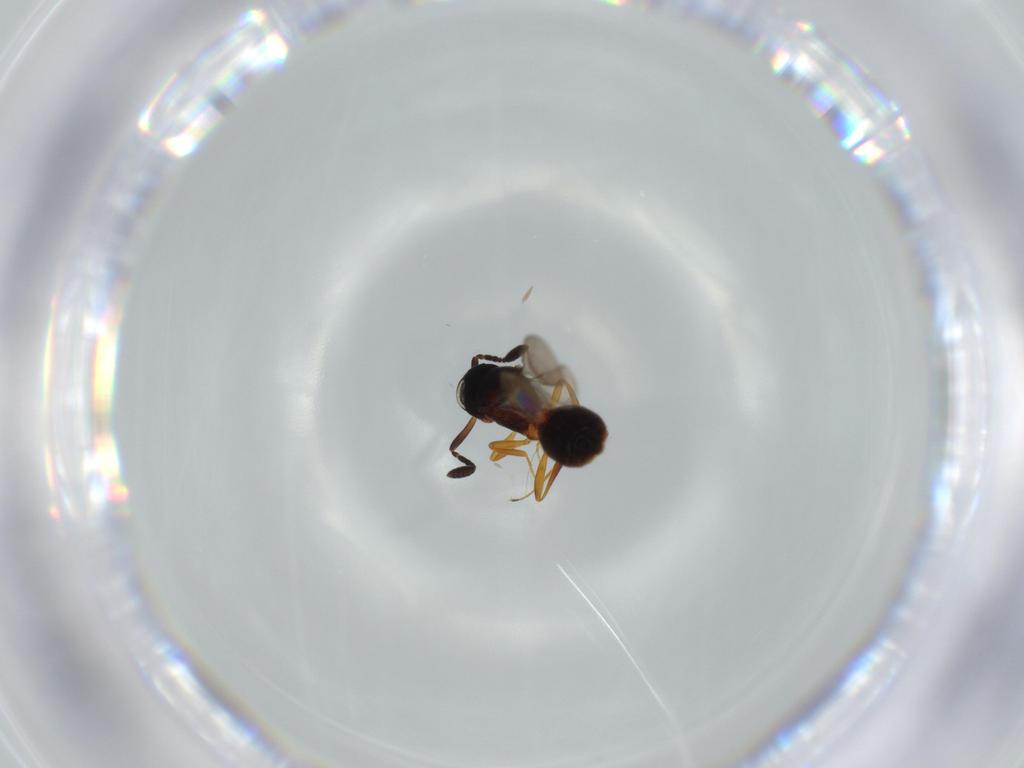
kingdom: Animalia
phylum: Arthropoda
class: Insecta
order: Hymenoptera
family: Scelionidae
